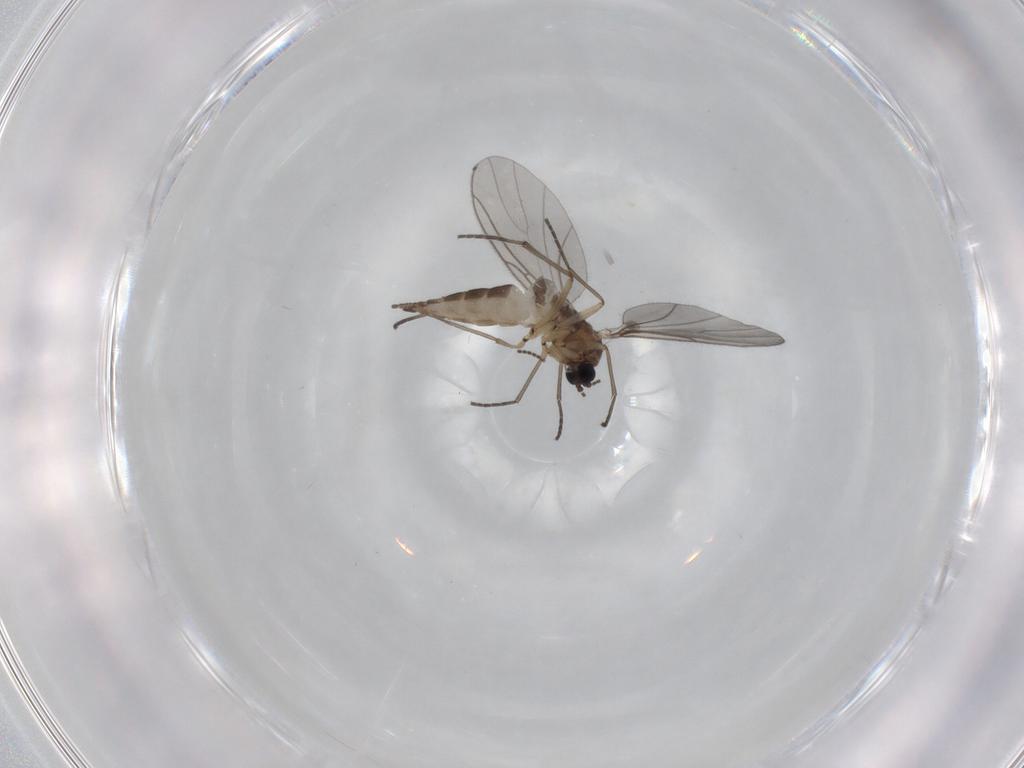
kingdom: Animalia
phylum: Arthropoda
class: Insecta
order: Diptera
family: Sciaridae
